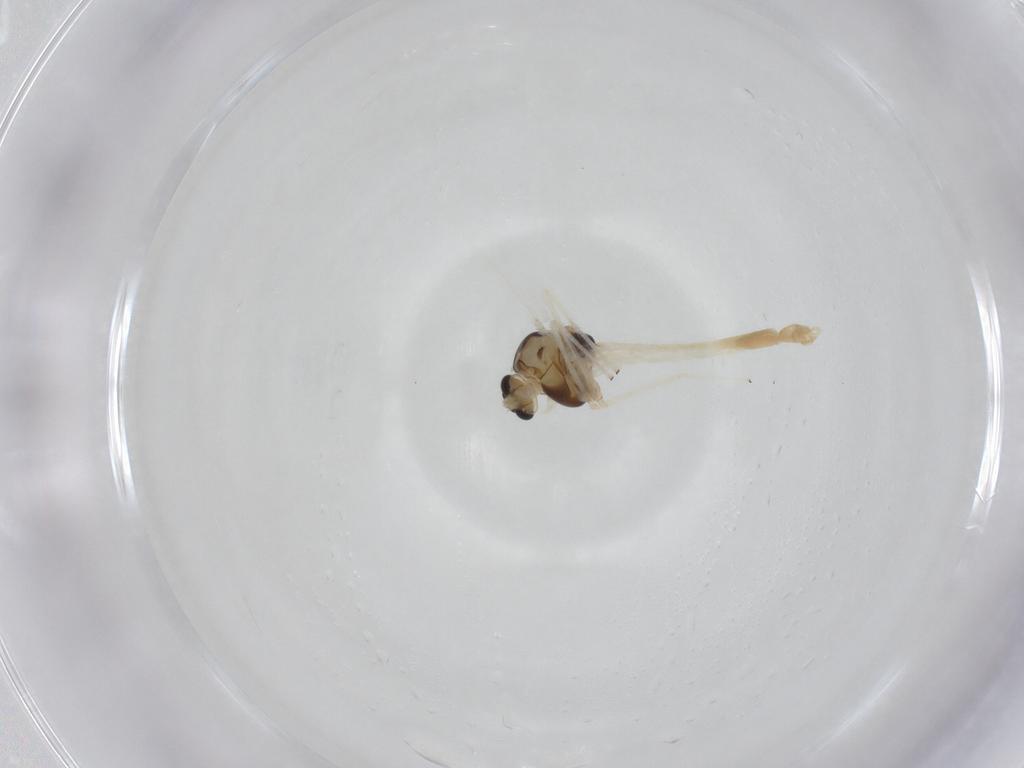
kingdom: Animalia
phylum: Arthropoda
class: Insecta
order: Diptera
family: Chironomidae
